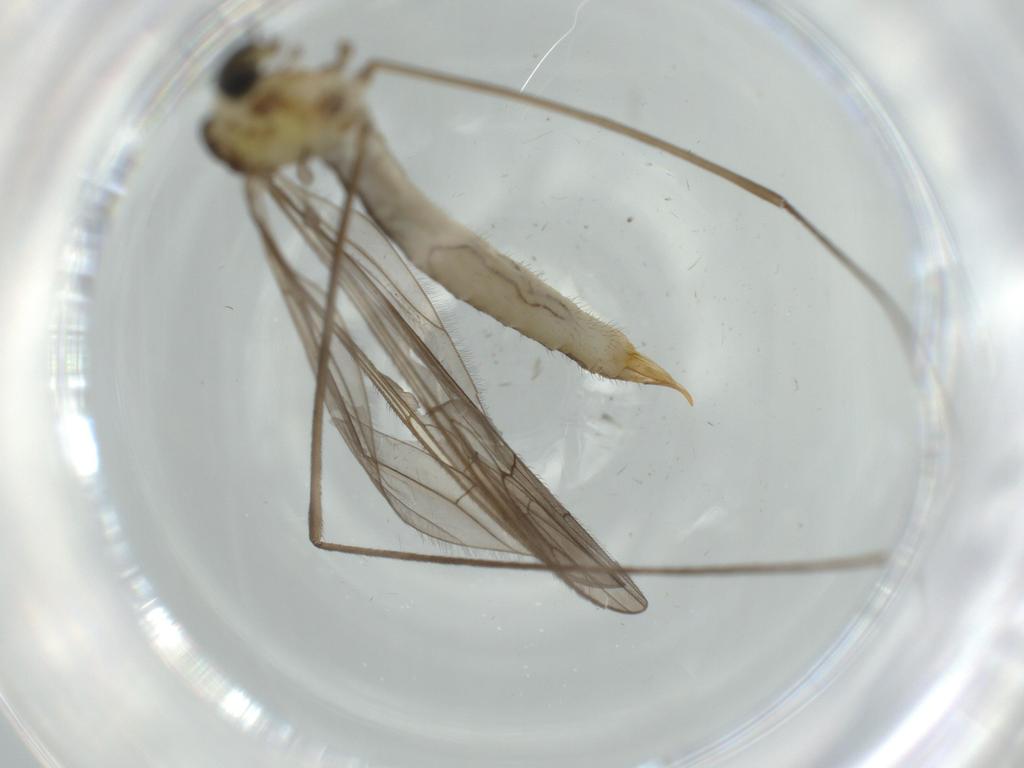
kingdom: Animalia
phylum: Arthropoda
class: Insecta
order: Diptera
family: Limoniidae
